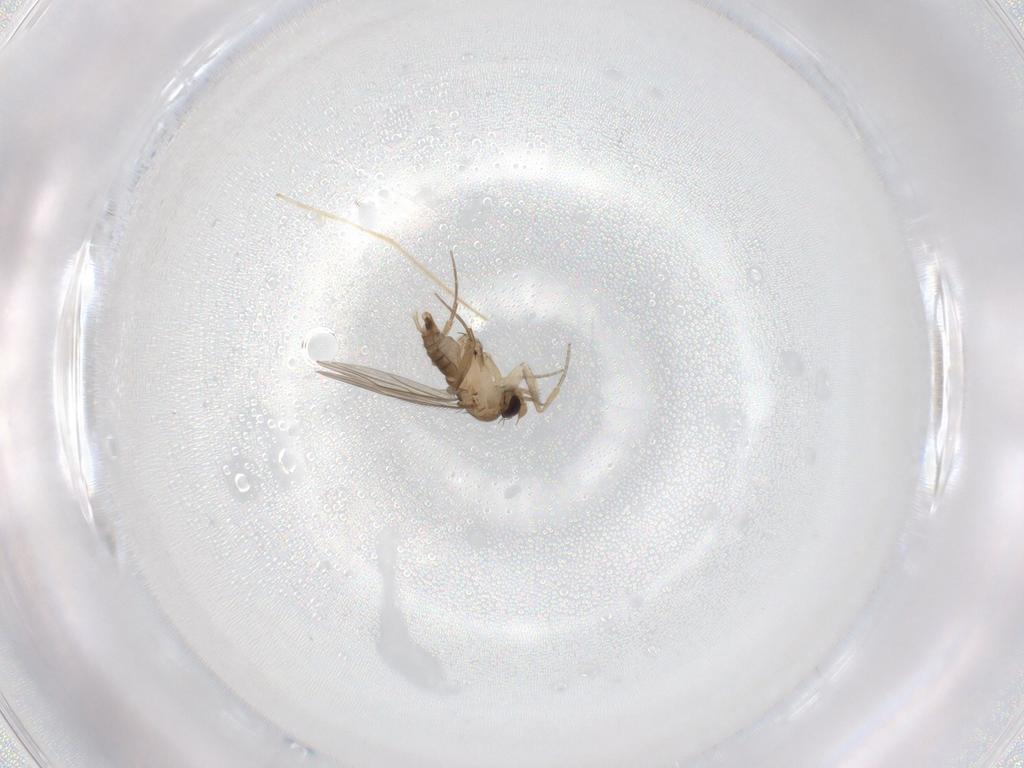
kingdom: Animalia
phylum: Arthropoda
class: Insecta
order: Diptera
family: Phoridae
